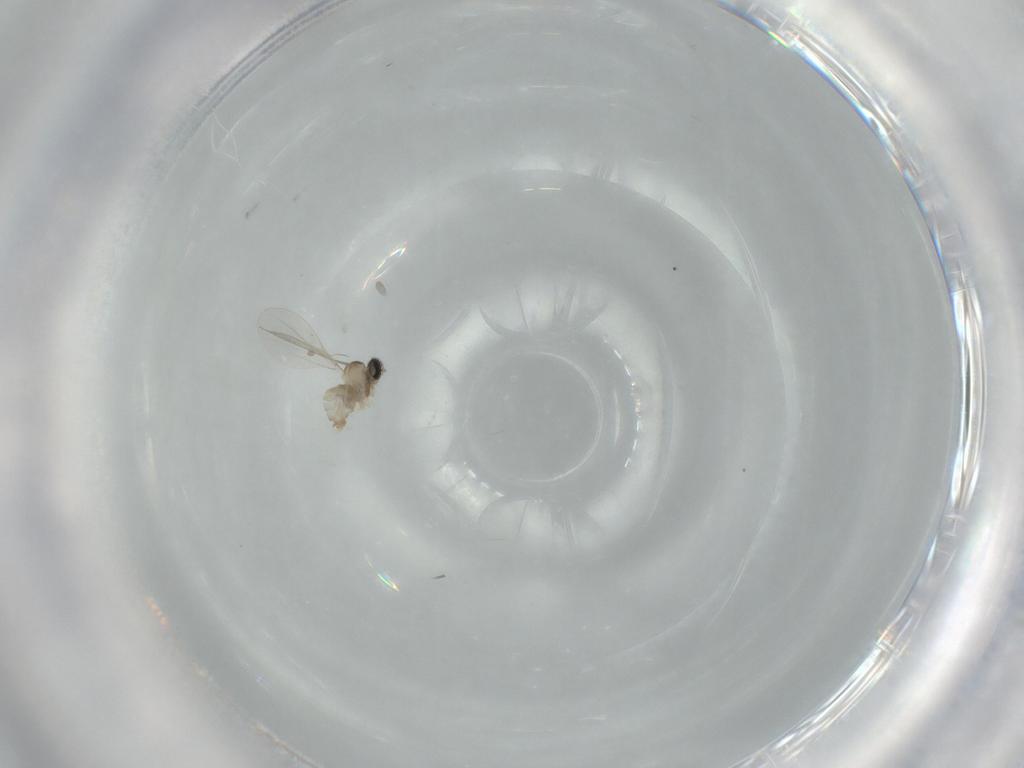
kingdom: Animalia
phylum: Arthropoda
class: Insecta
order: Diptera
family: Cecidomyiidae
